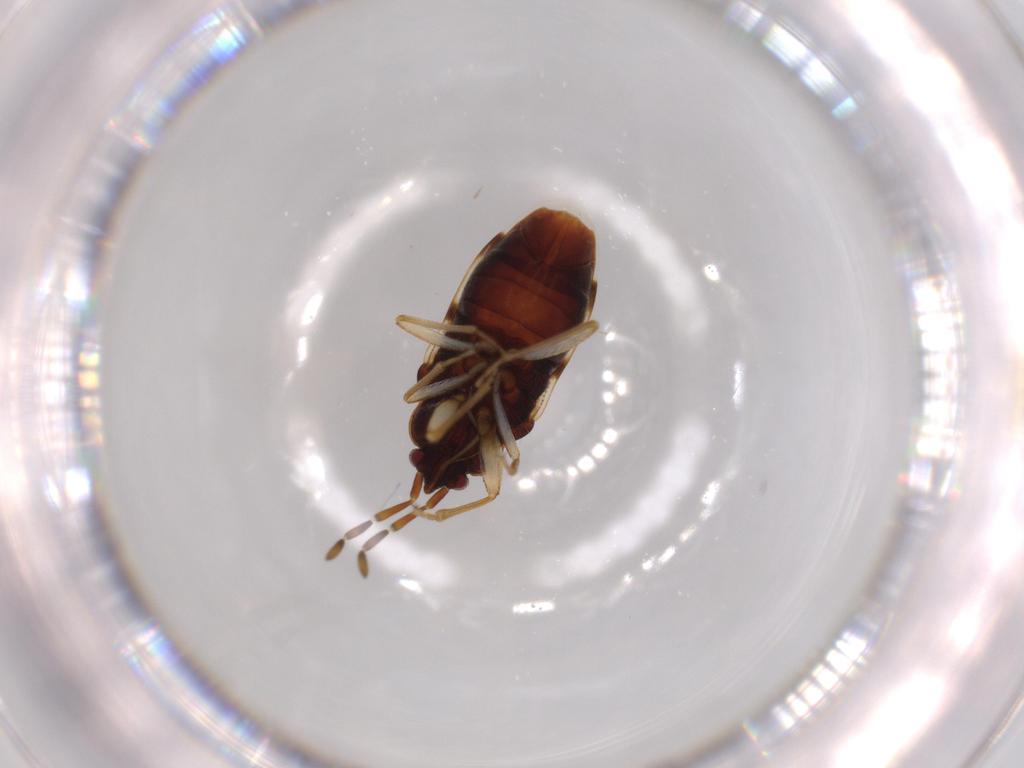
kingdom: Animalia
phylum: Arthropoda
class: Insecta
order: Hemiptera
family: Rhyparochromidae
